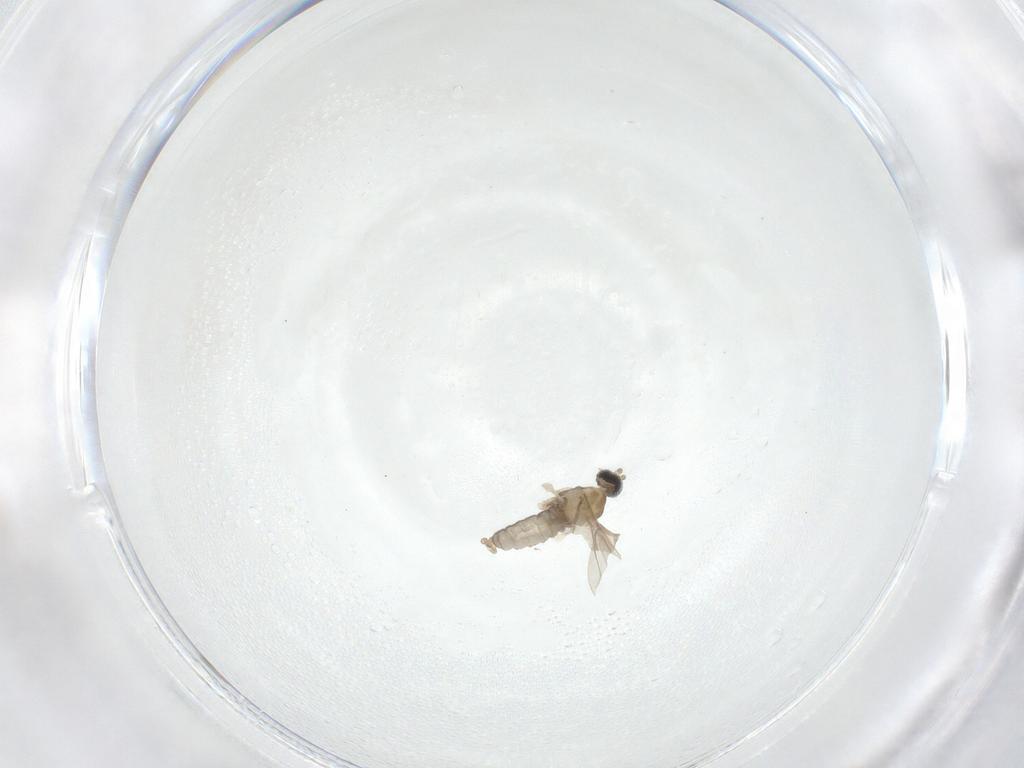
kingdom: Animalia
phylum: Arthropoda
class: Insecta
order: Diptera
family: Cecidomyiidae
